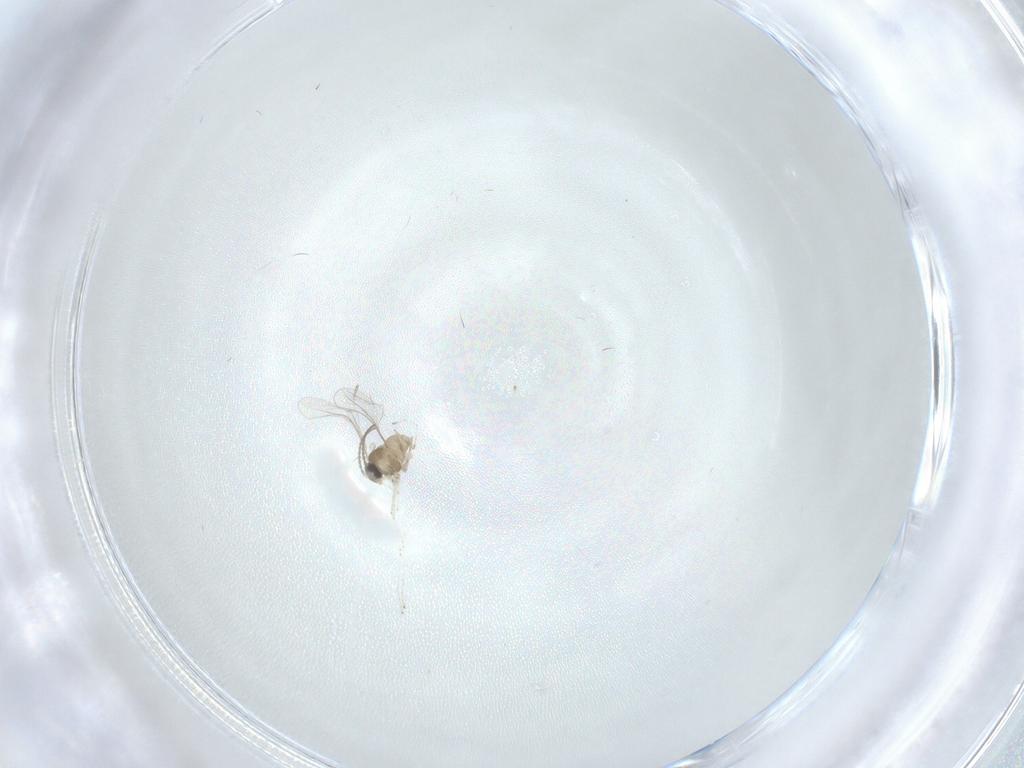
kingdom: Animalia
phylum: Arthropoda
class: Insecta
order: Diptera
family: Cecidomyiidae
